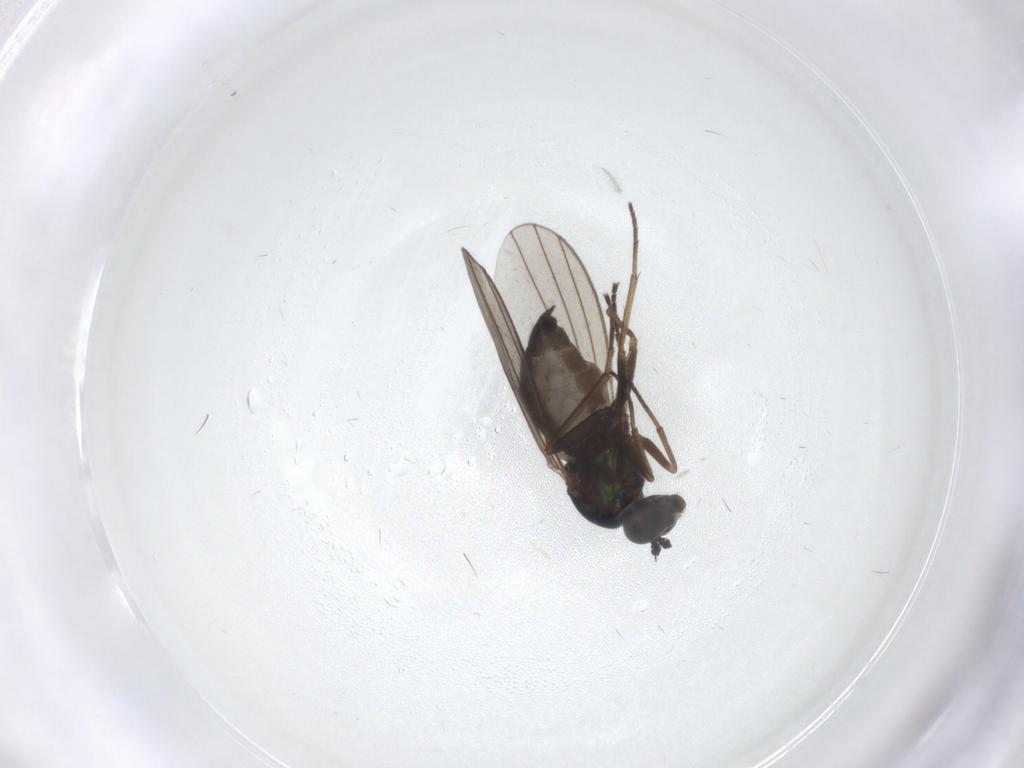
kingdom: Animalia
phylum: Arthropoda
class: Insecta
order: Diptera
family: Dolichopodidae
